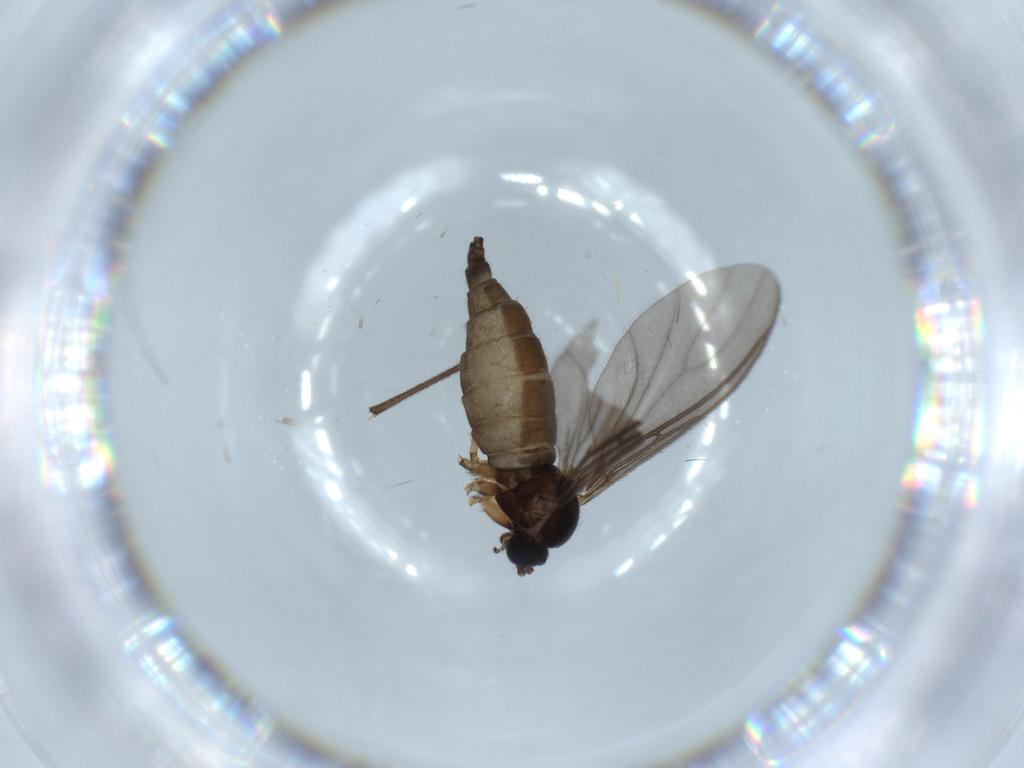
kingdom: Animalia
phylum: Arthropoda
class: Insecta
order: Diptera
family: Sciaridae
